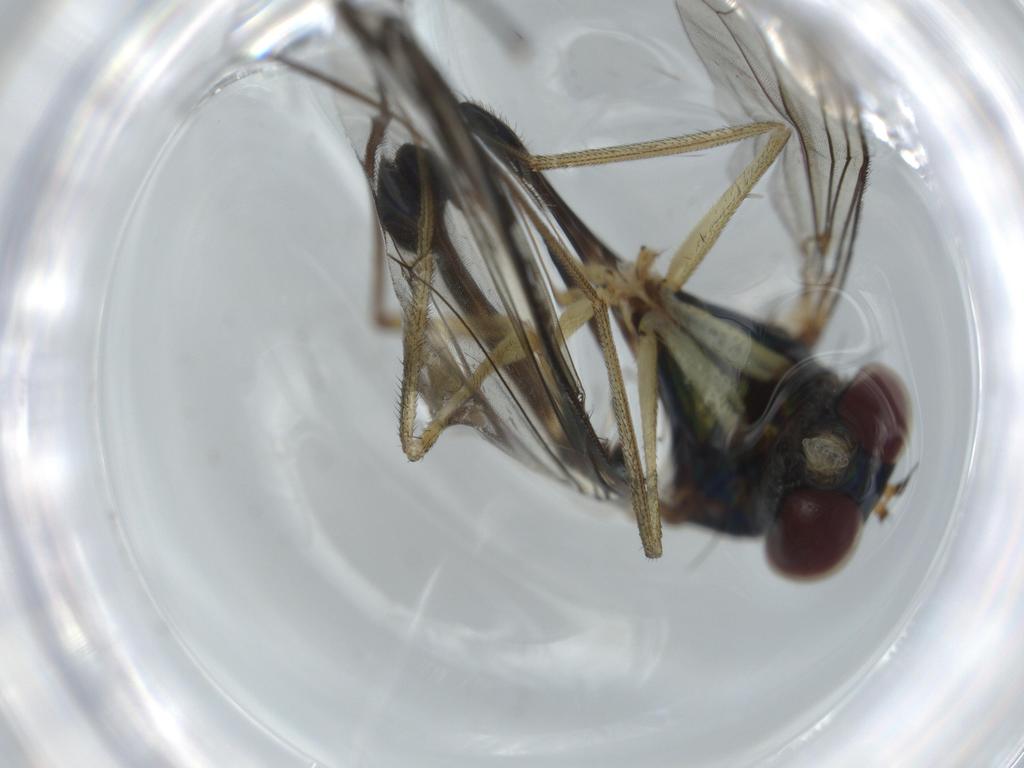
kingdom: Animalia
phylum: Arthropoda
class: Insecta
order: Diptera
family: Dolichopodidae
